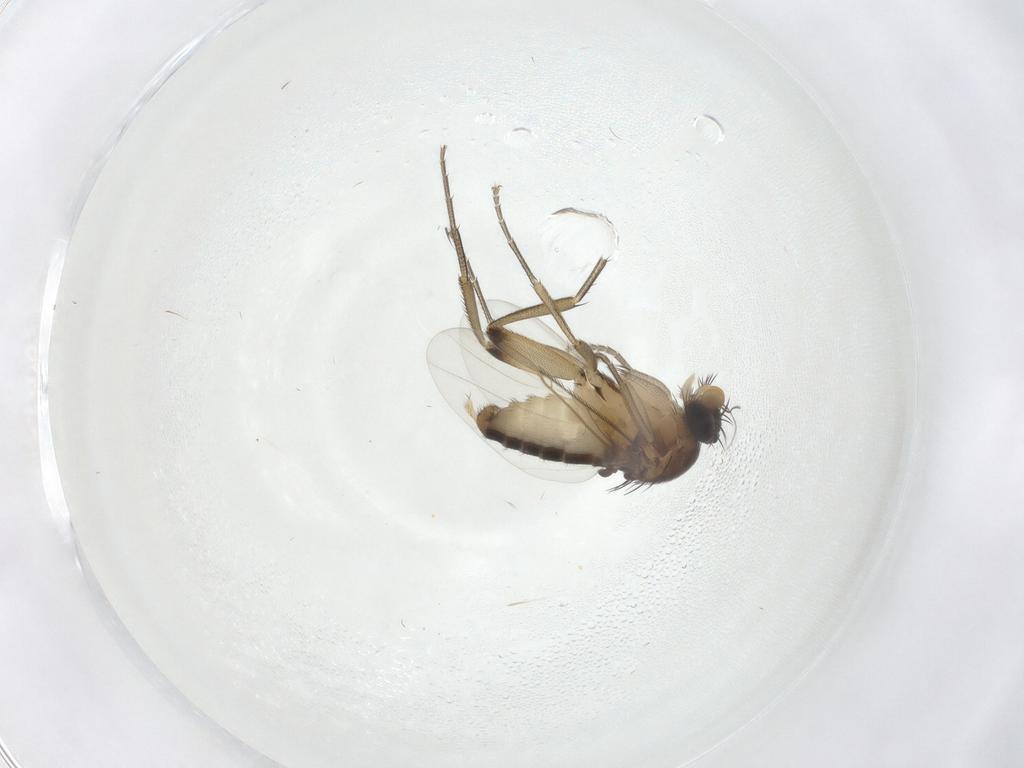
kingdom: Animalia
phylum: Arthropoda
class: Insecta
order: Diptera
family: Phoridae
